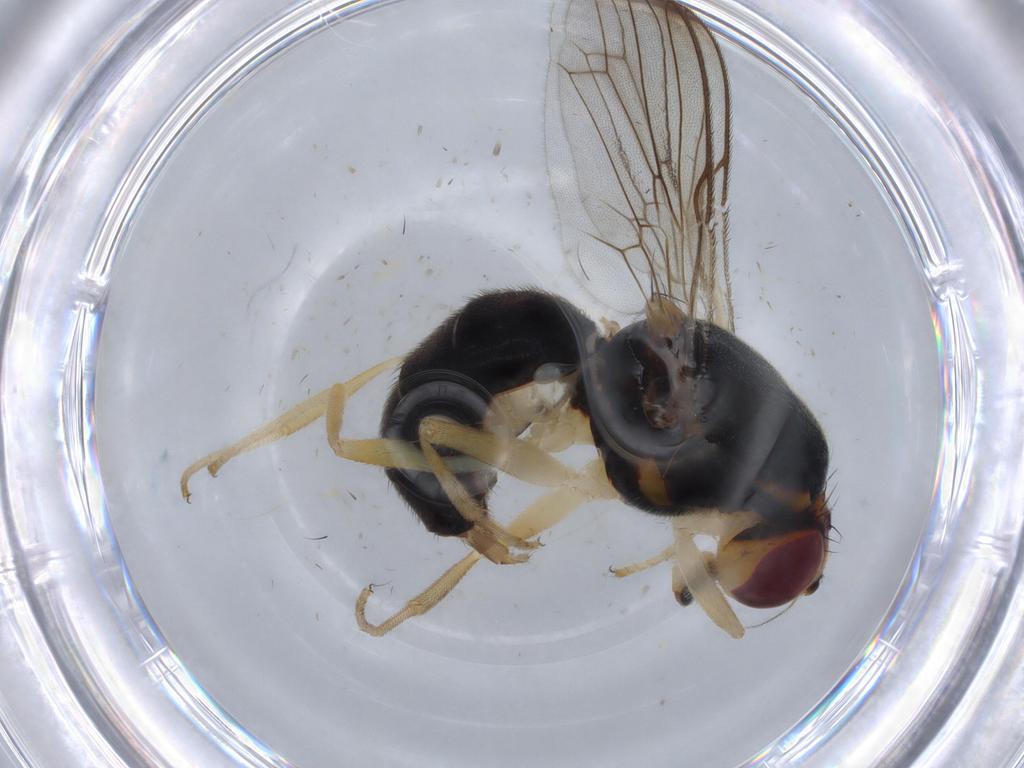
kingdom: Animalia
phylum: Arthropoda
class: Insecta
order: Diptera
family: Psilidae
